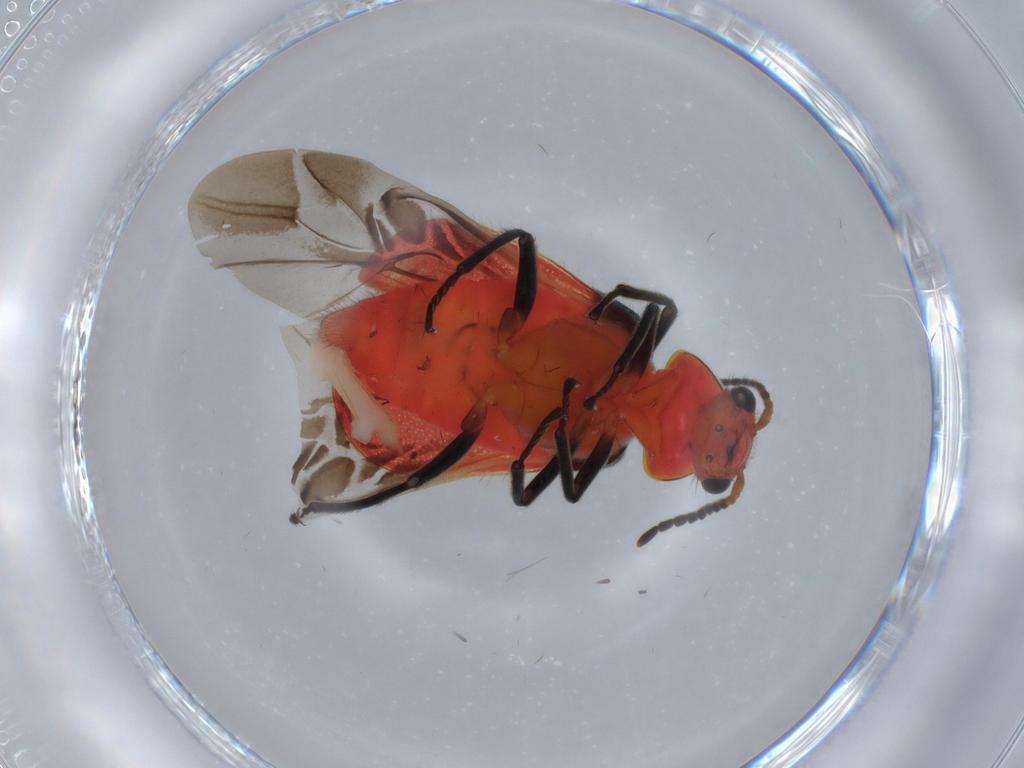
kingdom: Animalia
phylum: Arthropoda
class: Insecta
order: Coleoptera
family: Melyridae
